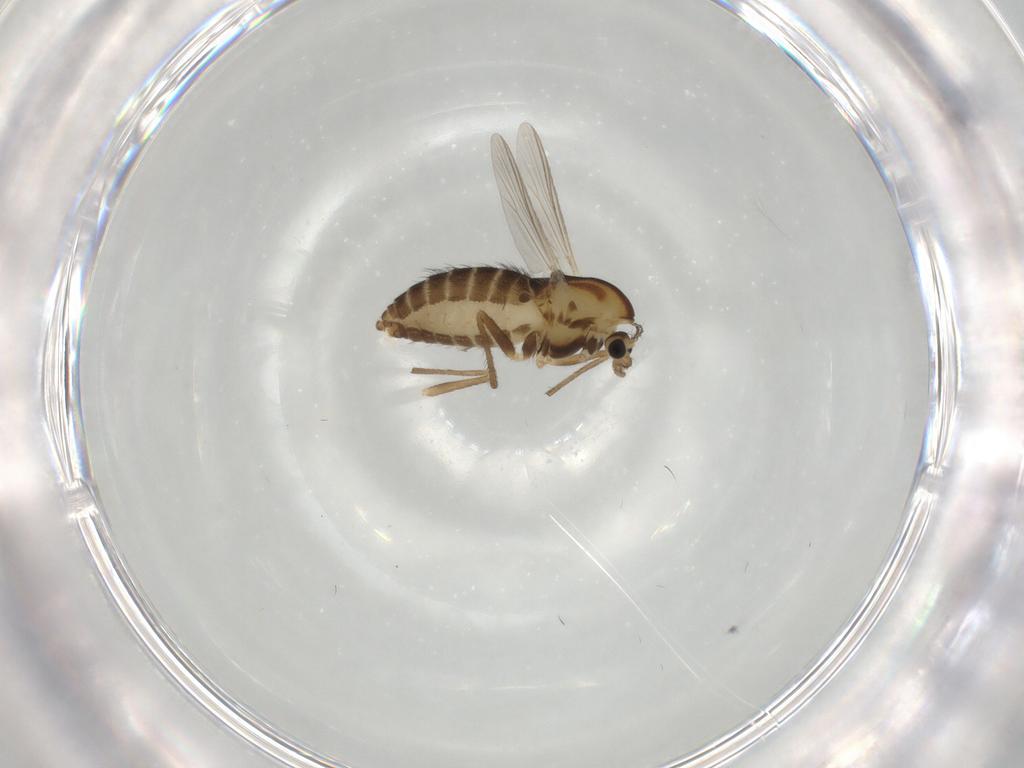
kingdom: Animalia
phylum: Arthropoda
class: Insecta
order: Diptera
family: Chironomidae
